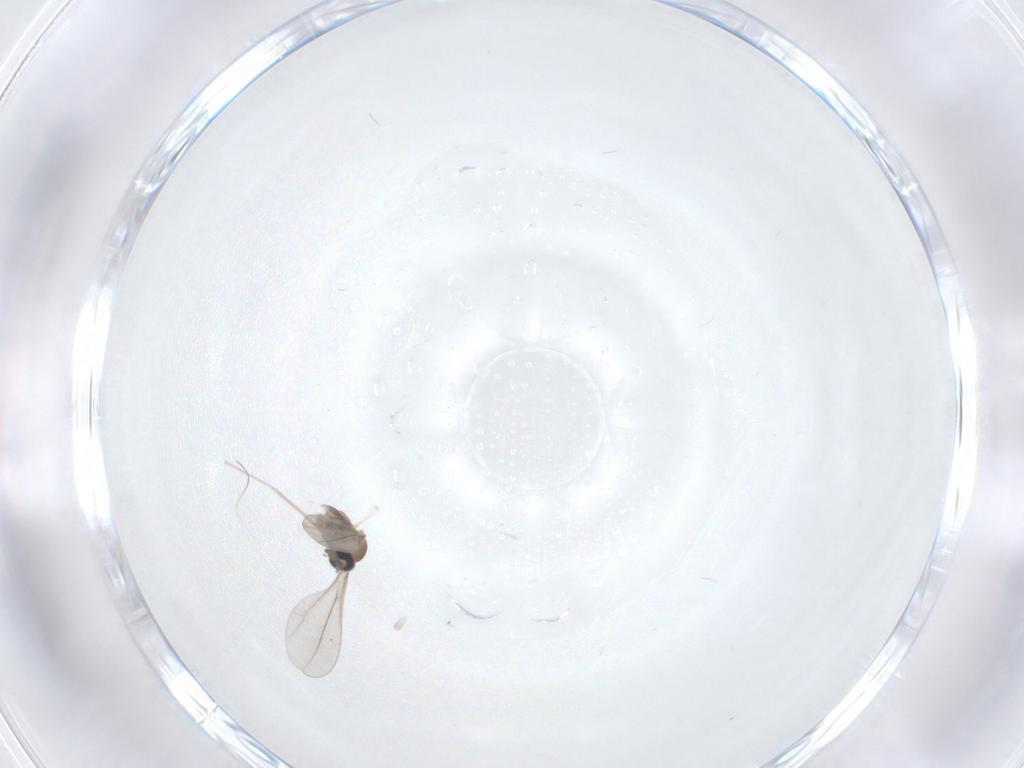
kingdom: Animalia
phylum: Arthropoda
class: Insecta
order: Diptera
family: Cecidomyiidae
